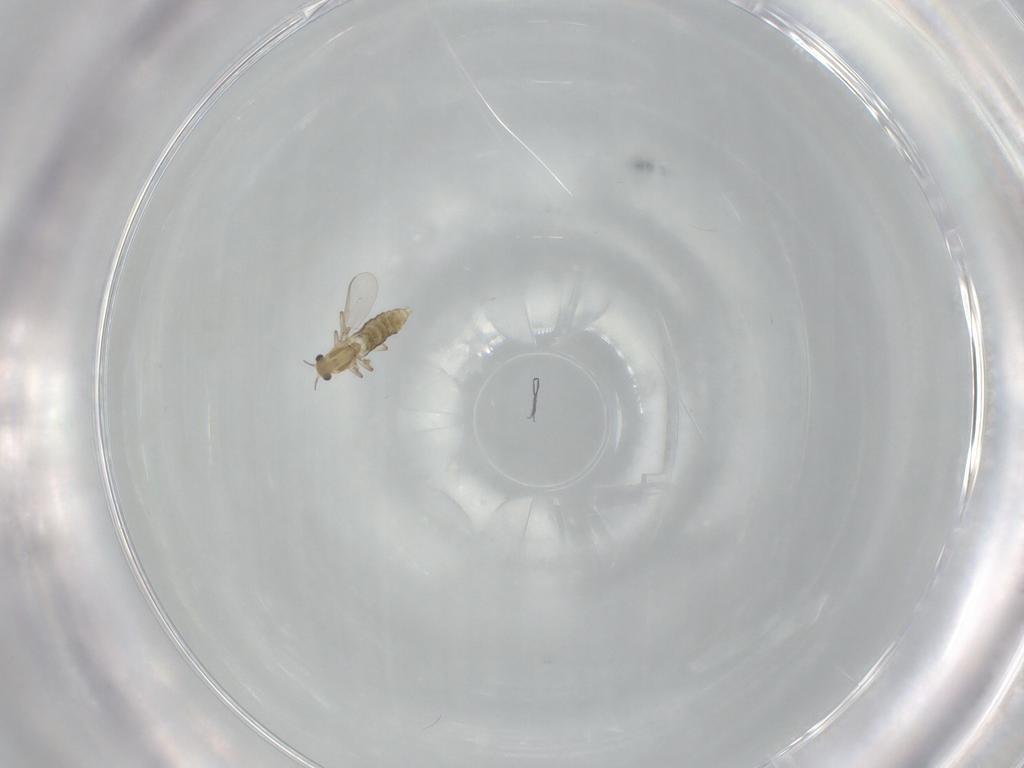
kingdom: Animalia
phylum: Arthropoda
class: Insecta
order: Diptera
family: Chironomidae
